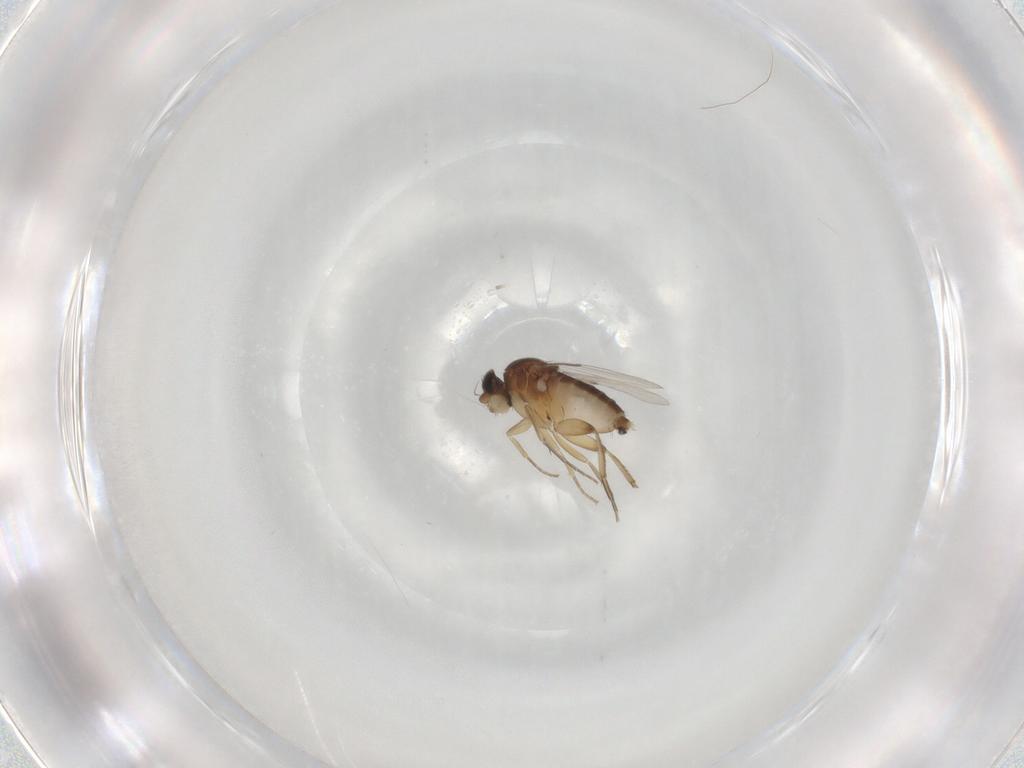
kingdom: Animalia
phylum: Arthropoda
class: Insecta
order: Diptera
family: Phoridae
